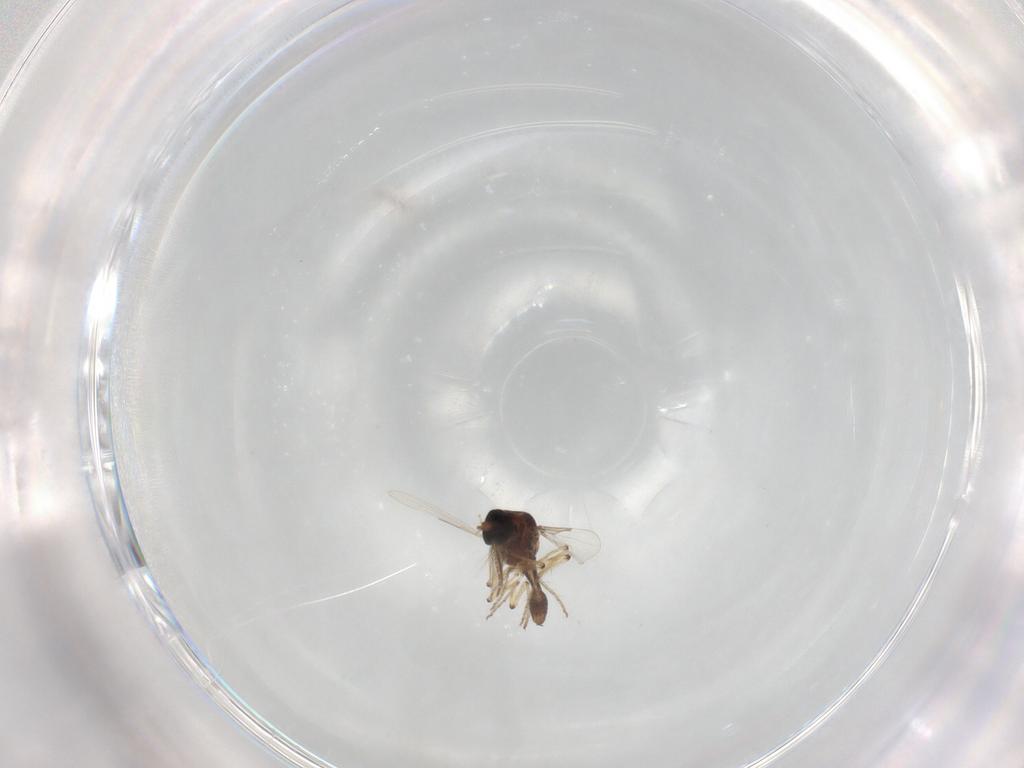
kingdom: Animalia
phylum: Arthropoda
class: Insecta
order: Diptera
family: Ceratopogonidae
